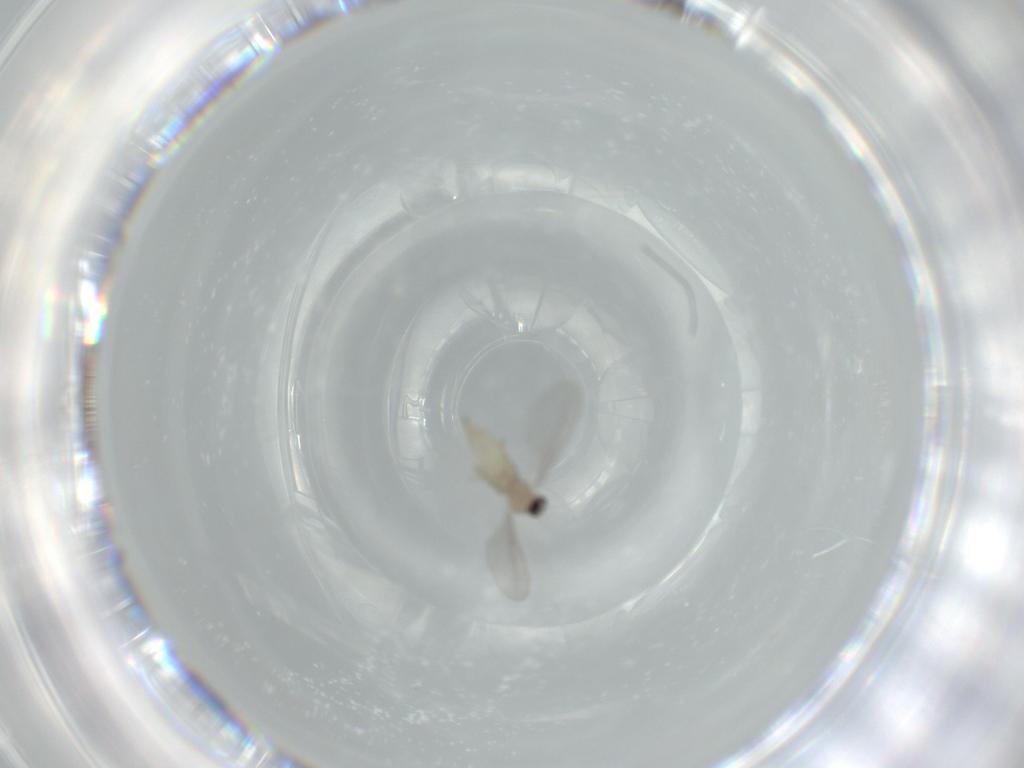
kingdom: Animalia
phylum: Arthropoda
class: Insecta
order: Diptera
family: Cecidomyiidae
